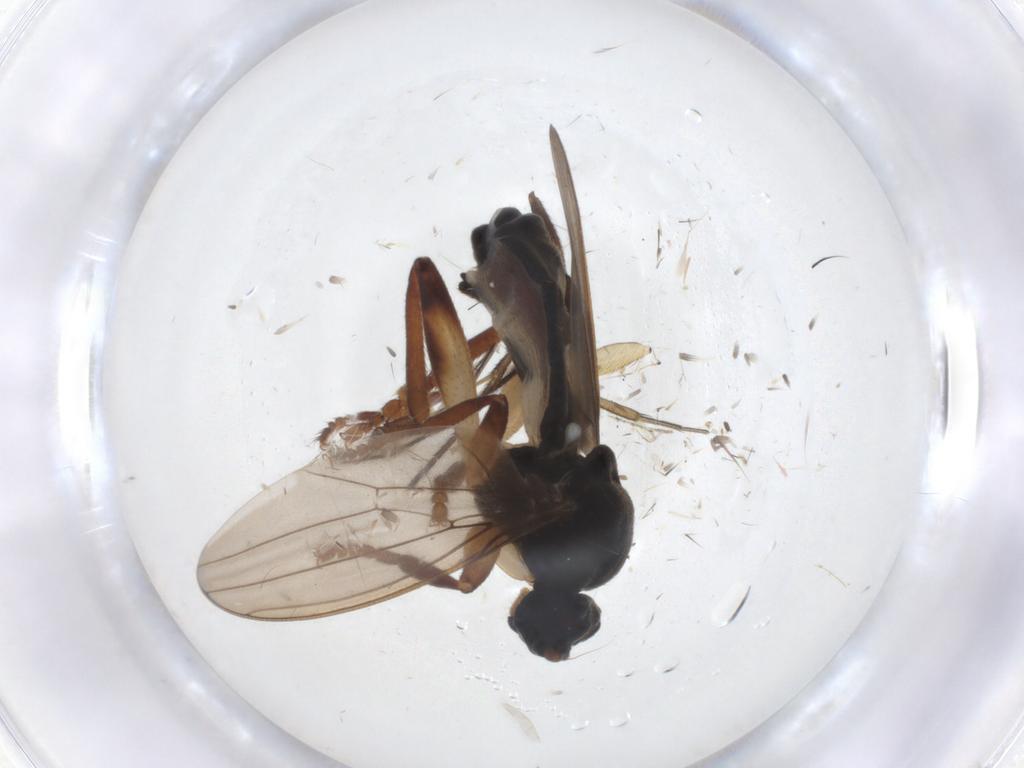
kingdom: Animalia
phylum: Arthropoda
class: Insecta
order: Diptera
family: Sphaeroceridae
